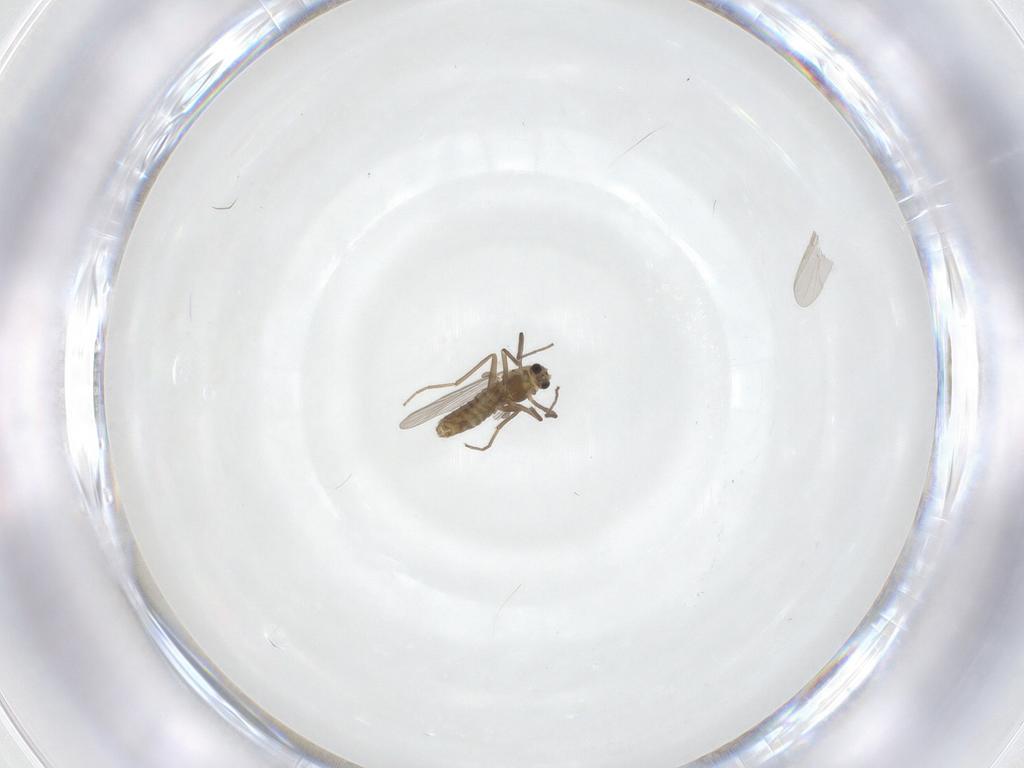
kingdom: Animalia
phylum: Arthropoda
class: Insecta
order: Diptera
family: Chironomidae
